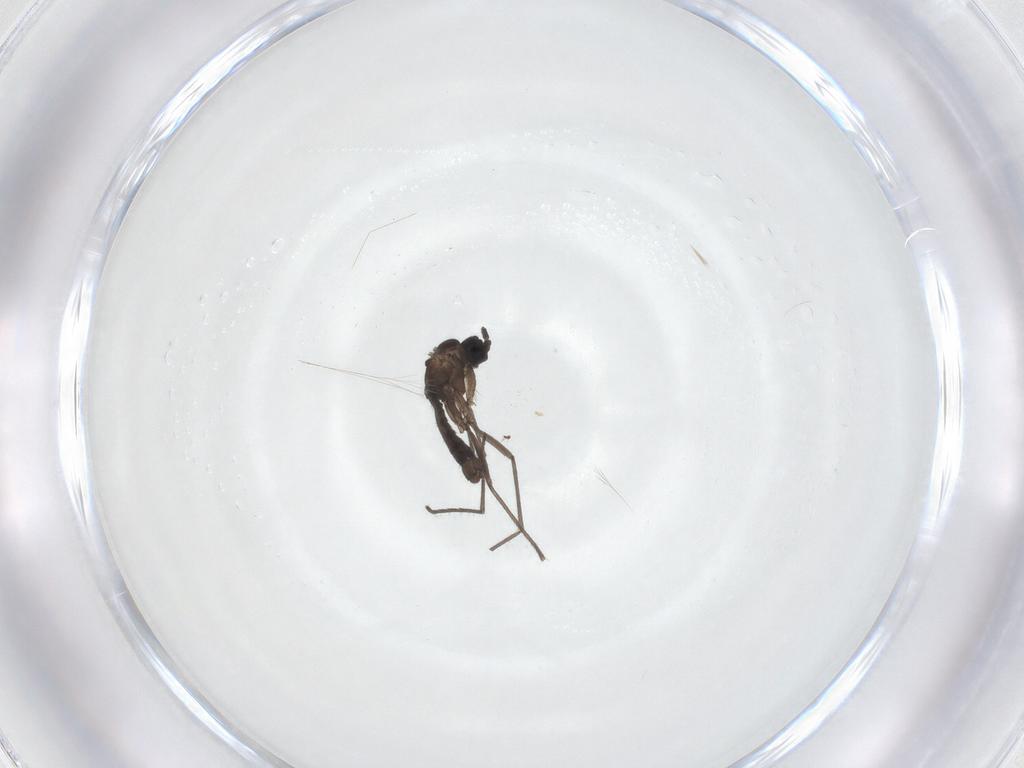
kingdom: Animalia
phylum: Arthropoda
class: Insecta
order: Diptera
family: Sciaridae
